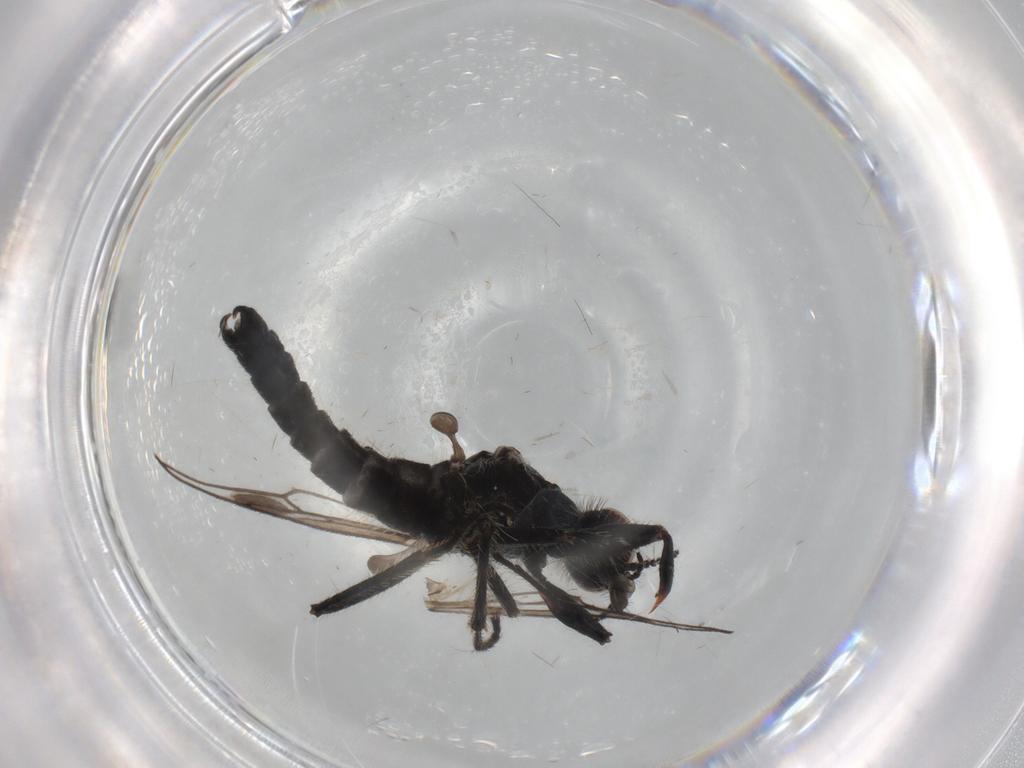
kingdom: Animalia
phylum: Arthropoda
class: Insecta
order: Diptera
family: Bibionidae
